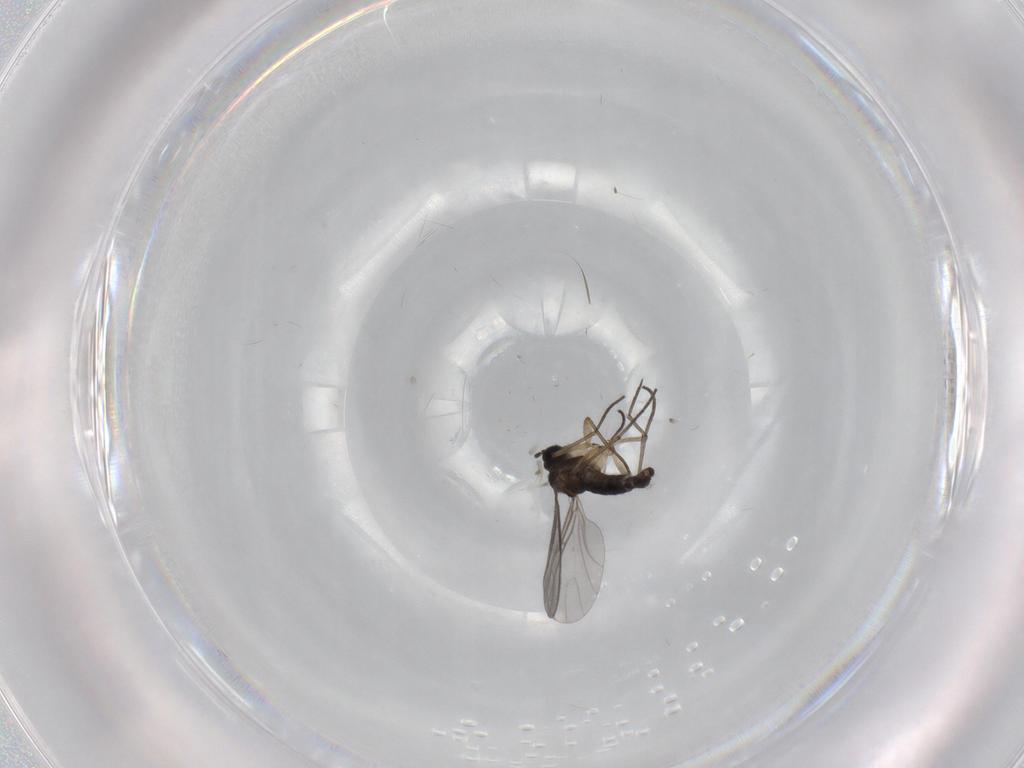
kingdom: Animalia
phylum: Arthropoda
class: Insecta
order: Diptera
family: Sciaridae
